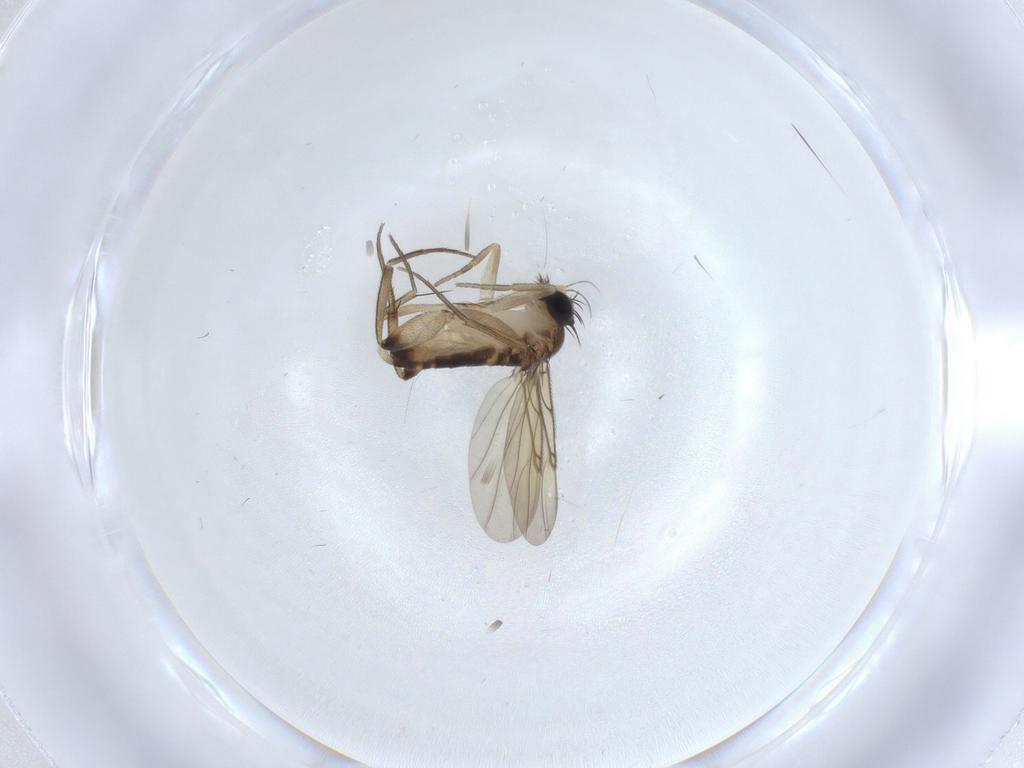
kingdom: Animalia
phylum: Arthropoda
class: Insecta
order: Diptera
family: Phoridae
